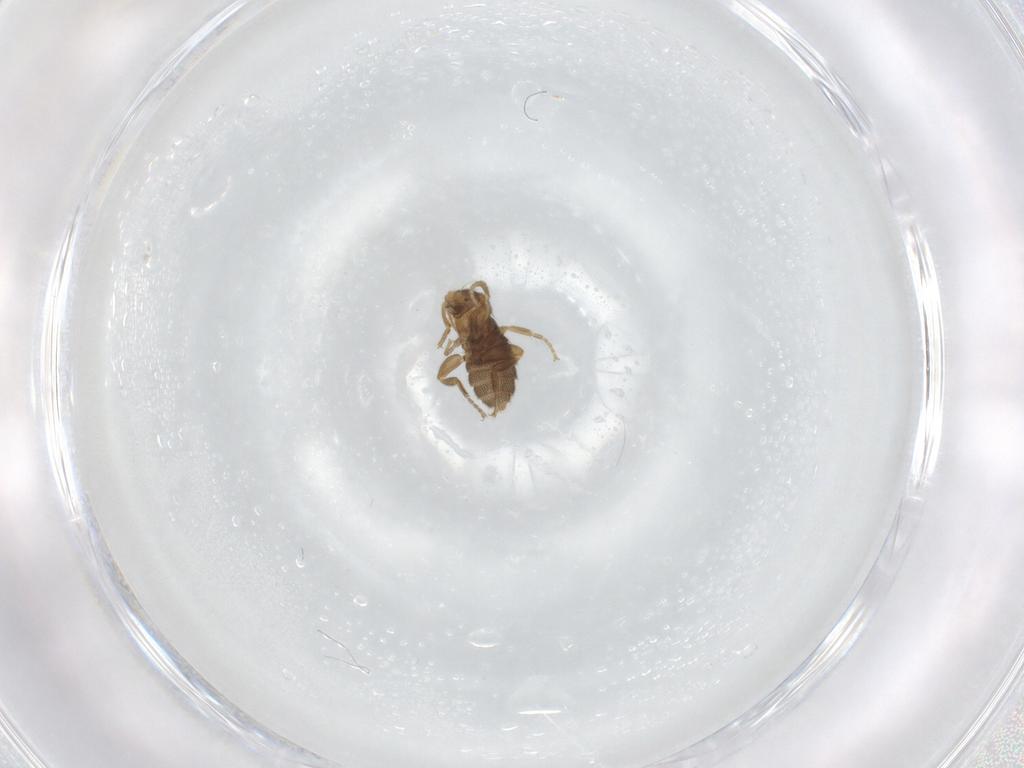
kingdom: Animalia
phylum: Arthropoda
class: Insecta
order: Diptera
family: Phoridae
